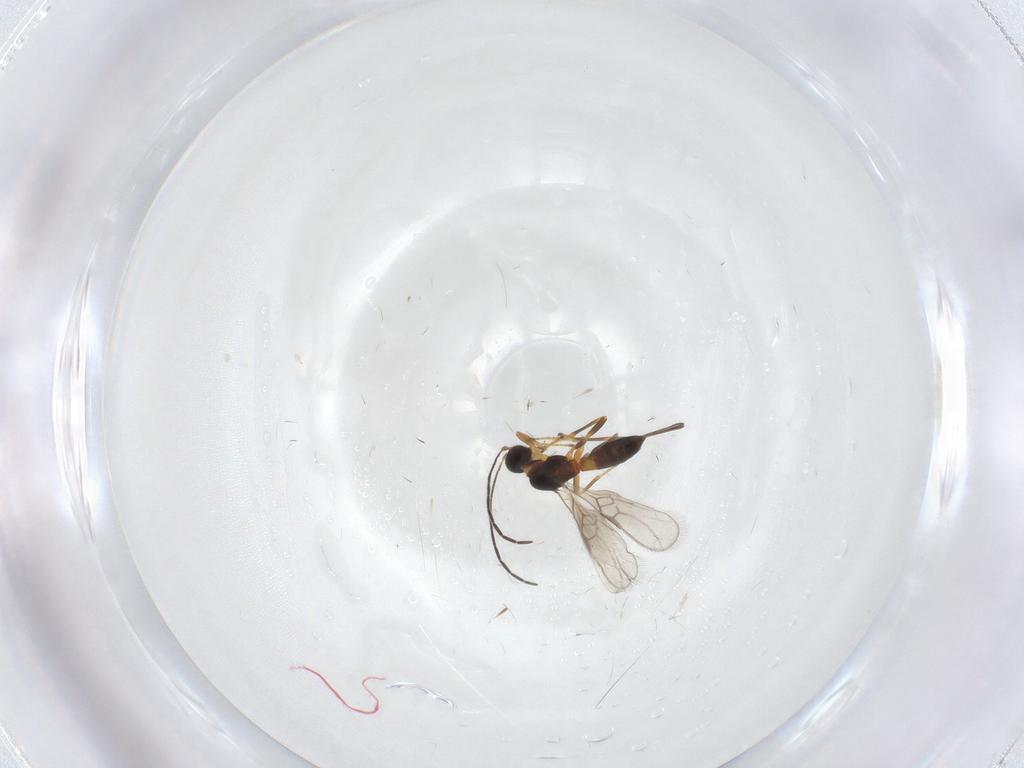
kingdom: Animalia
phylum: Arthropoda
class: Insecta
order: Hymenoptera
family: Braconidae
